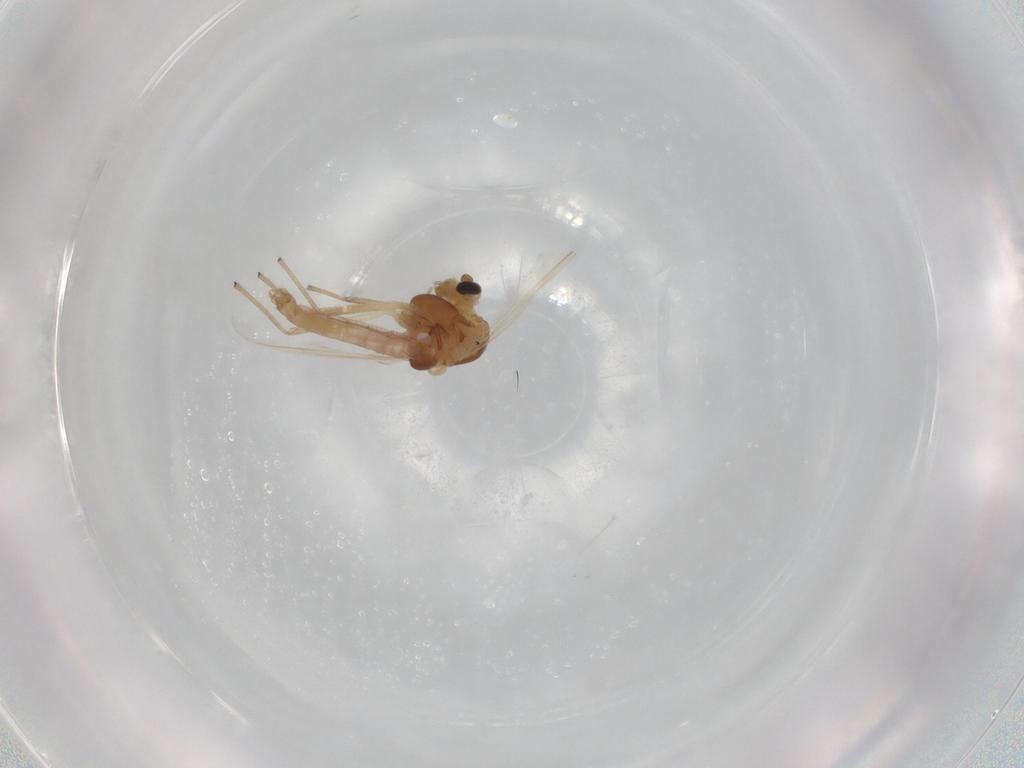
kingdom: Animalia
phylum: Arthropoda
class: Insecta
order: Diptera
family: Chironomidae
